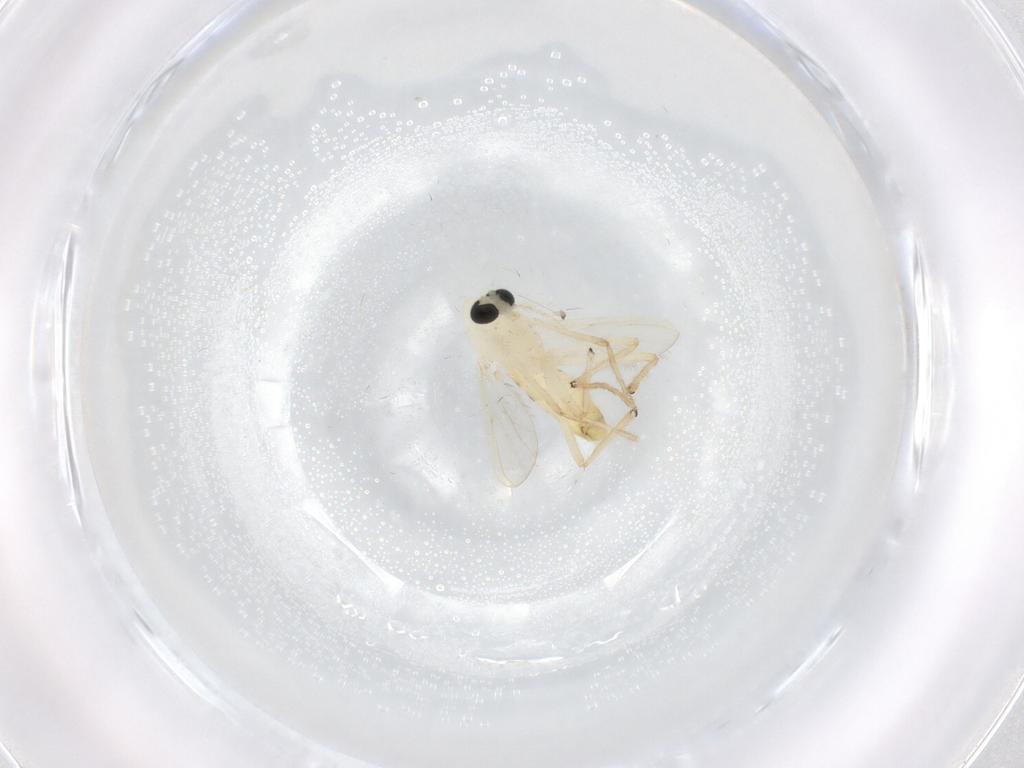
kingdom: Animalia
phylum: Arthropoda
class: Insecta
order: Diptera
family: Chironomidae
